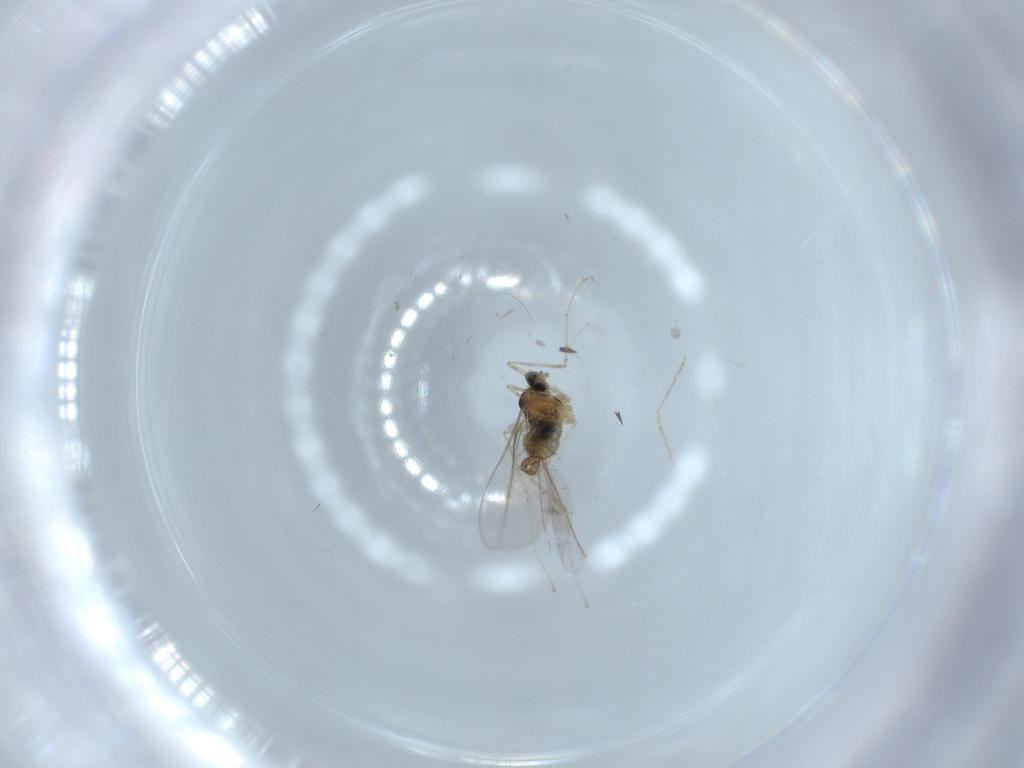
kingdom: Animalia
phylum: Arthropoda
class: Insecta
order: Diptera
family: Cecidomyiidae
